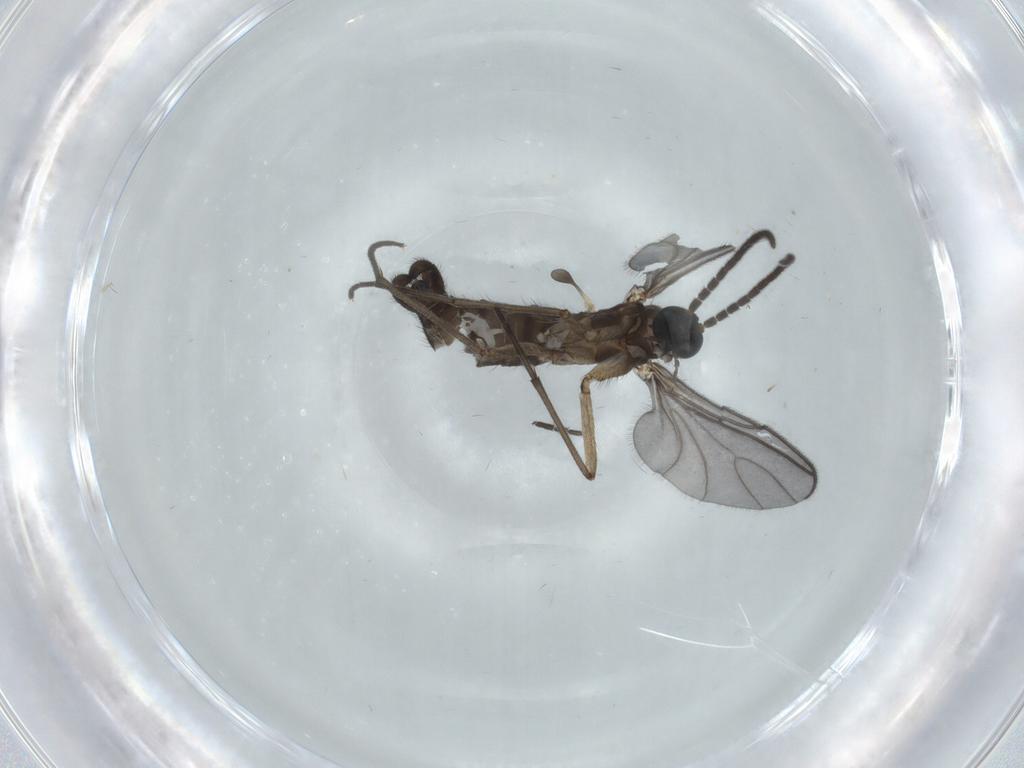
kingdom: Animalia
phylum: Arthropoda
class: Insecta
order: Diptera
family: Sciaridae
